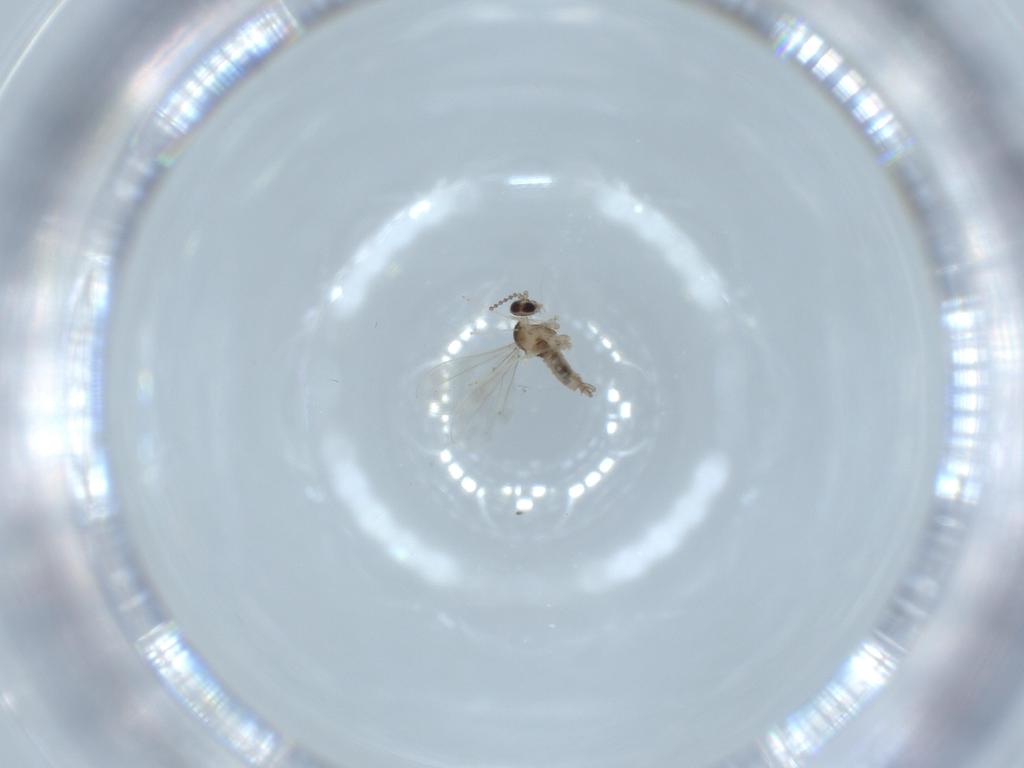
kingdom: Animalia
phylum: Arthropoda
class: Insecta
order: Diptera
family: Cecidomyiidae
